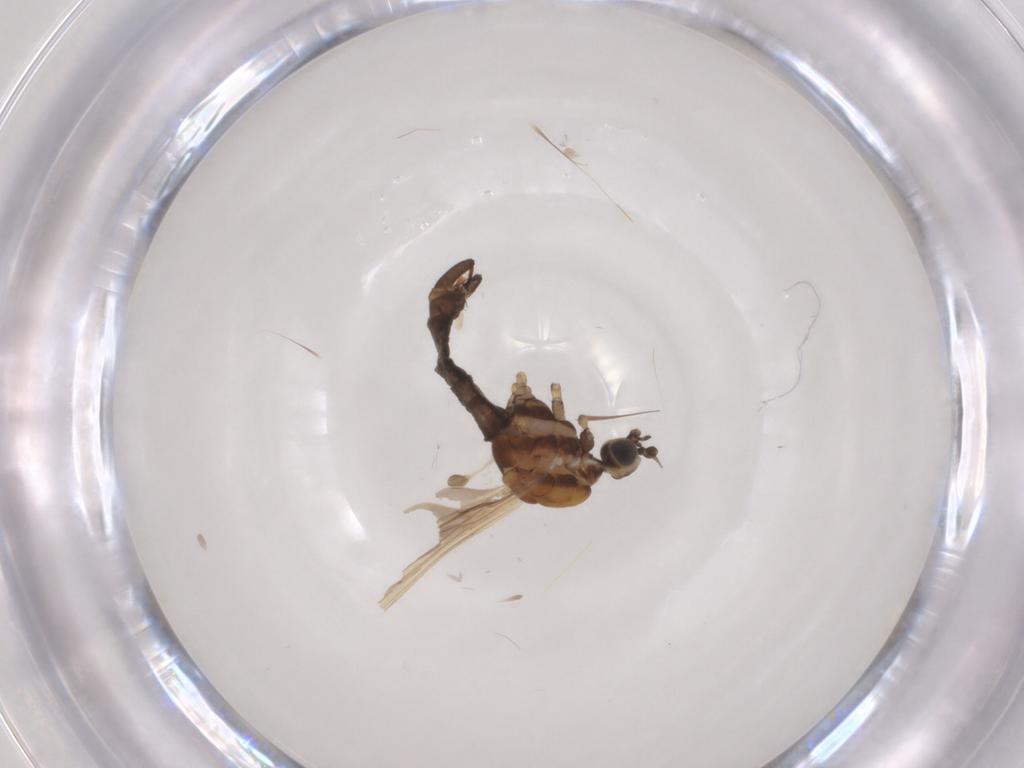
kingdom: Animalia
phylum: Arthropoda
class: Insecta
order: Diptera
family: Limoniidae
